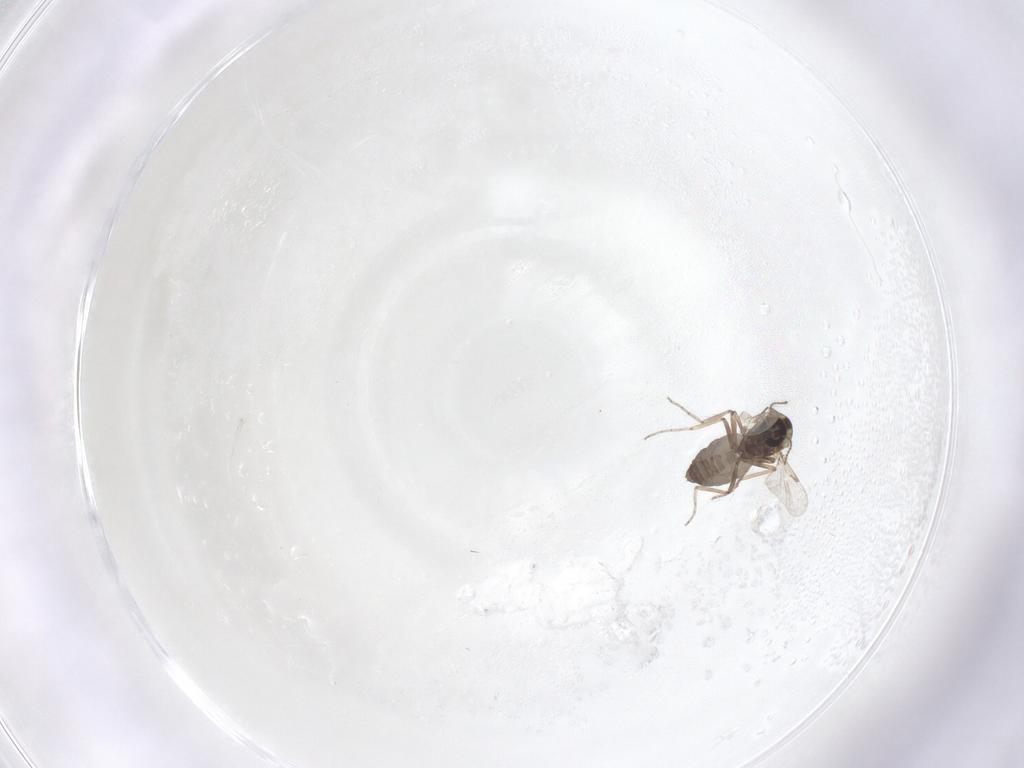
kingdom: Animalia
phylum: Arthropoda
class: Insecta
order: Diptera
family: Ceratopogonidae
